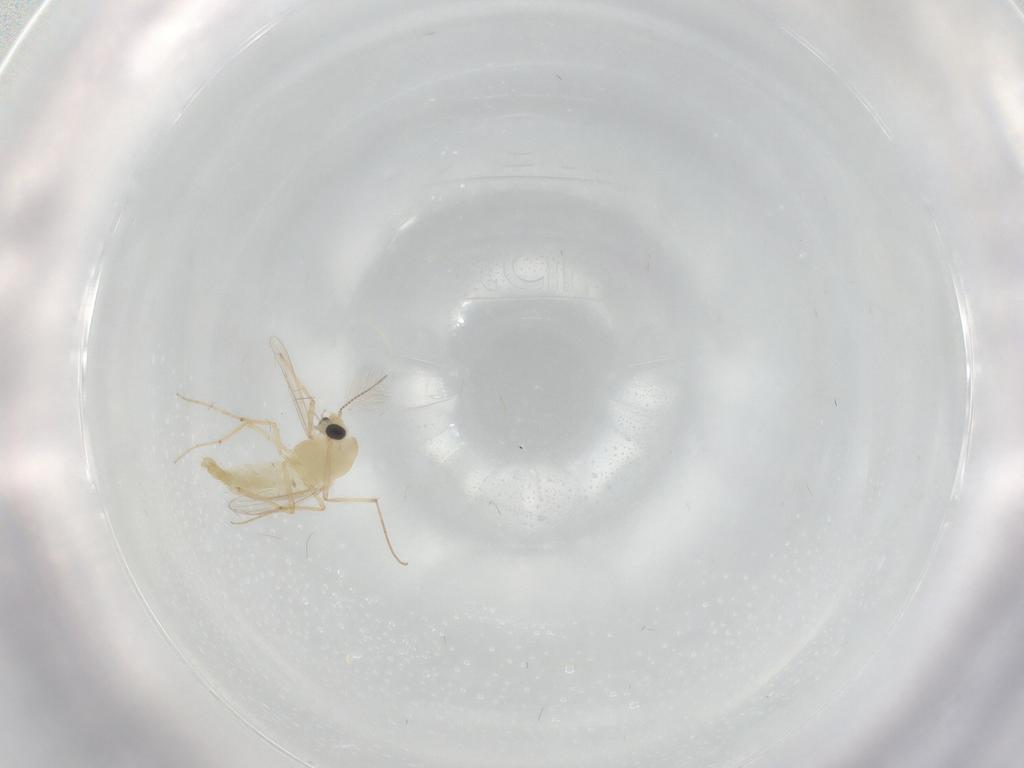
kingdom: Animalia
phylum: Arthropoda
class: Insecta
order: Diptera
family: Chironomidae
